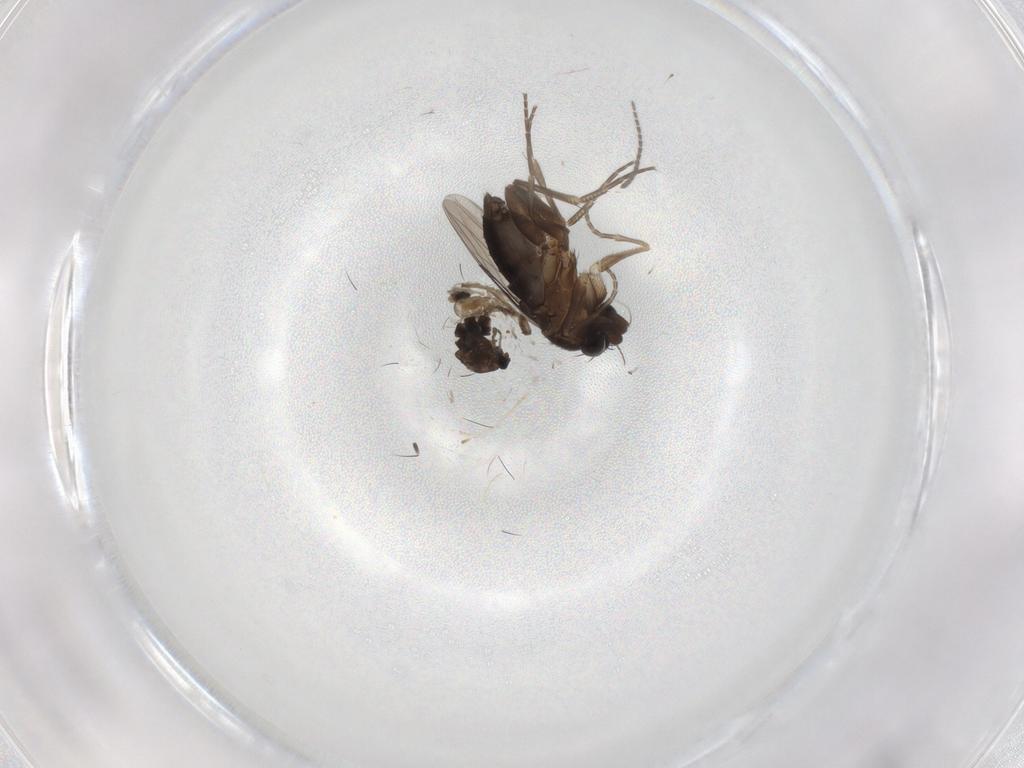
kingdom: Animalia
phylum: Arthropoda
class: Insecta
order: Diptera
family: Phoridae
